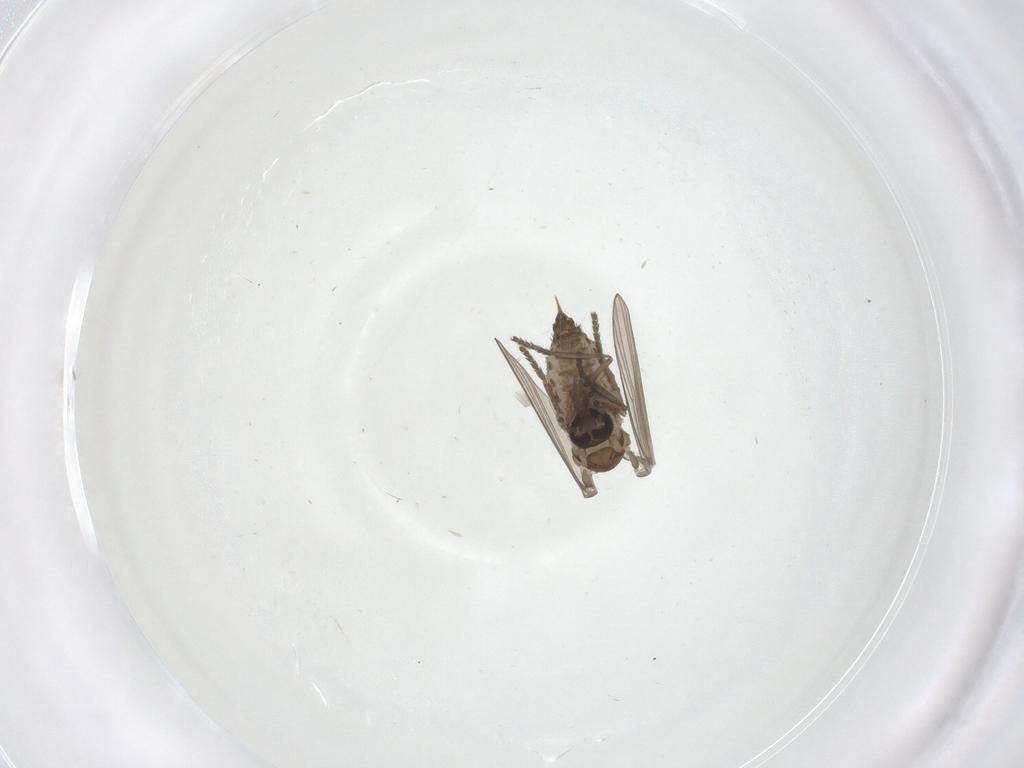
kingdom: Animalia
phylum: Arthropoda
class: Insecta
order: Diptera
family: Psychodidae
